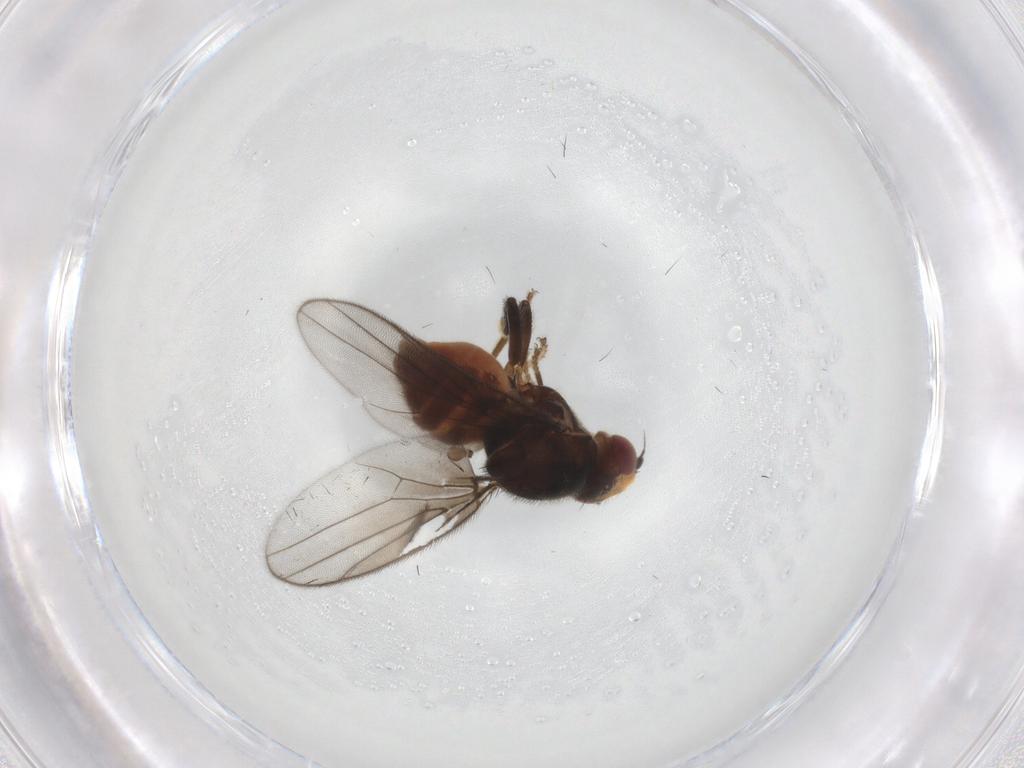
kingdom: Animalia
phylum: Arthropoda
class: Insecta
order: Diptera
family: Chloropidae
